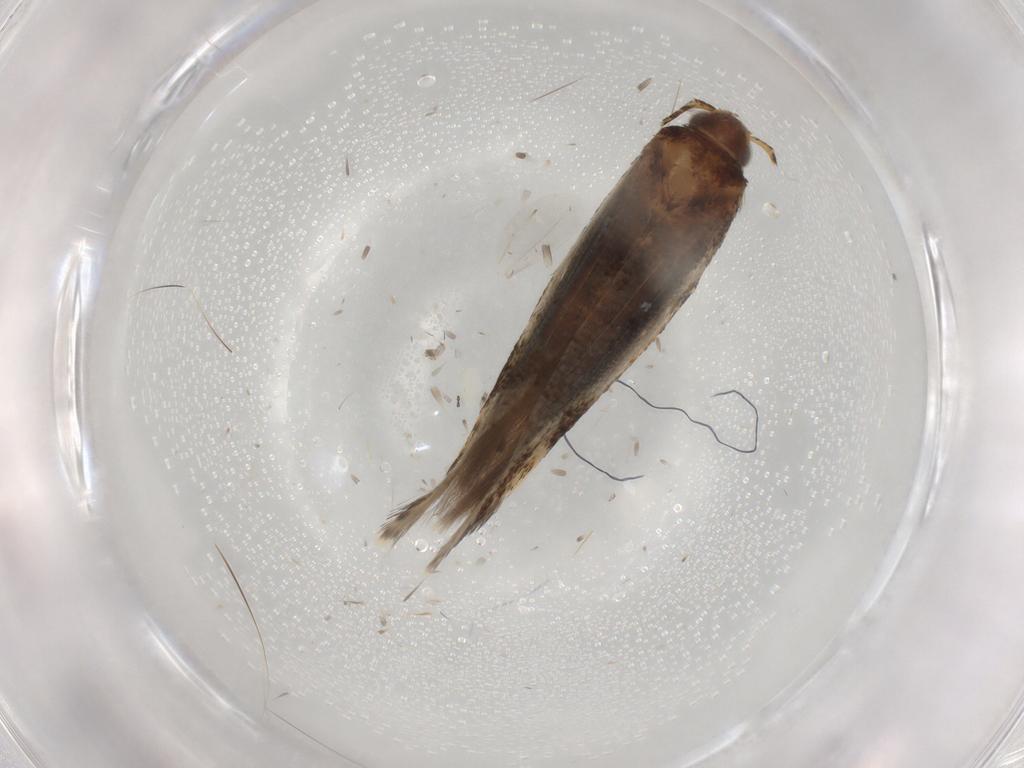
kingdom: Animalia
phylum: Arthropoda
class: Insecta
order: Lepidoptera
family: Gelechiidae
